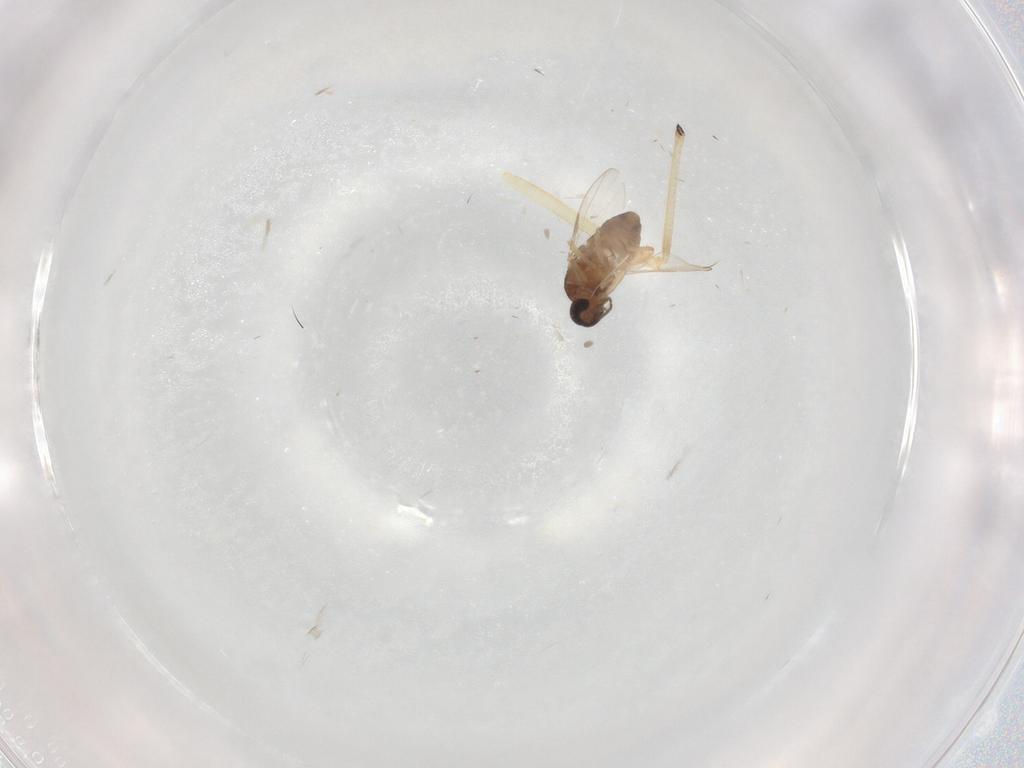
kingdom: Animalia
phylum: Arthropoda
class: Insecta
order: Diptera
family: Ceratopogonidae
